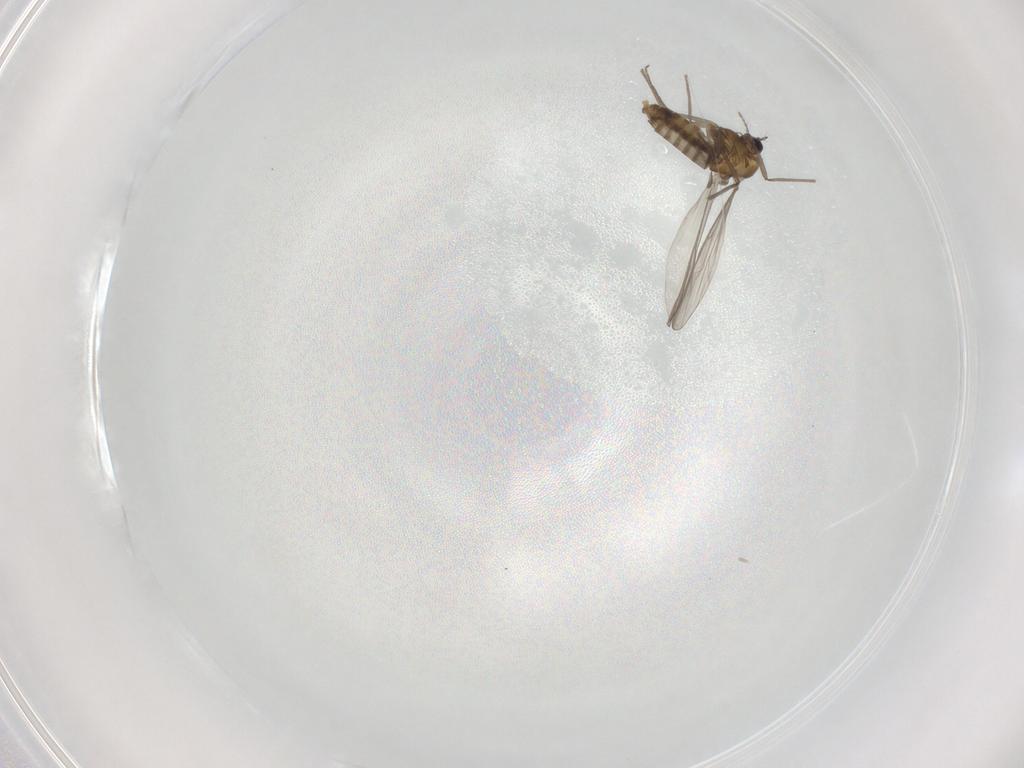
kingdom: Animalia
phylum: Arthropoda
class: Insecta
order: Diptera
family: Chironomidae
